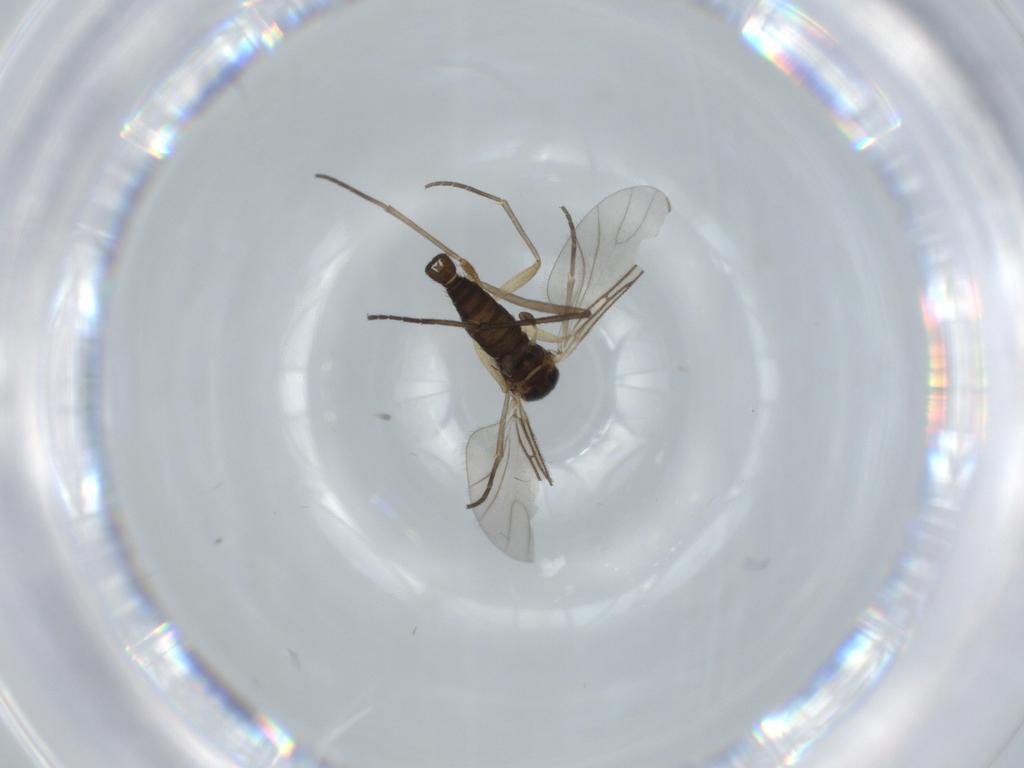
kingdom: Animalia
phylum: Arthropoda
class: Insecta
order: Diptera
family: Sciaridae
